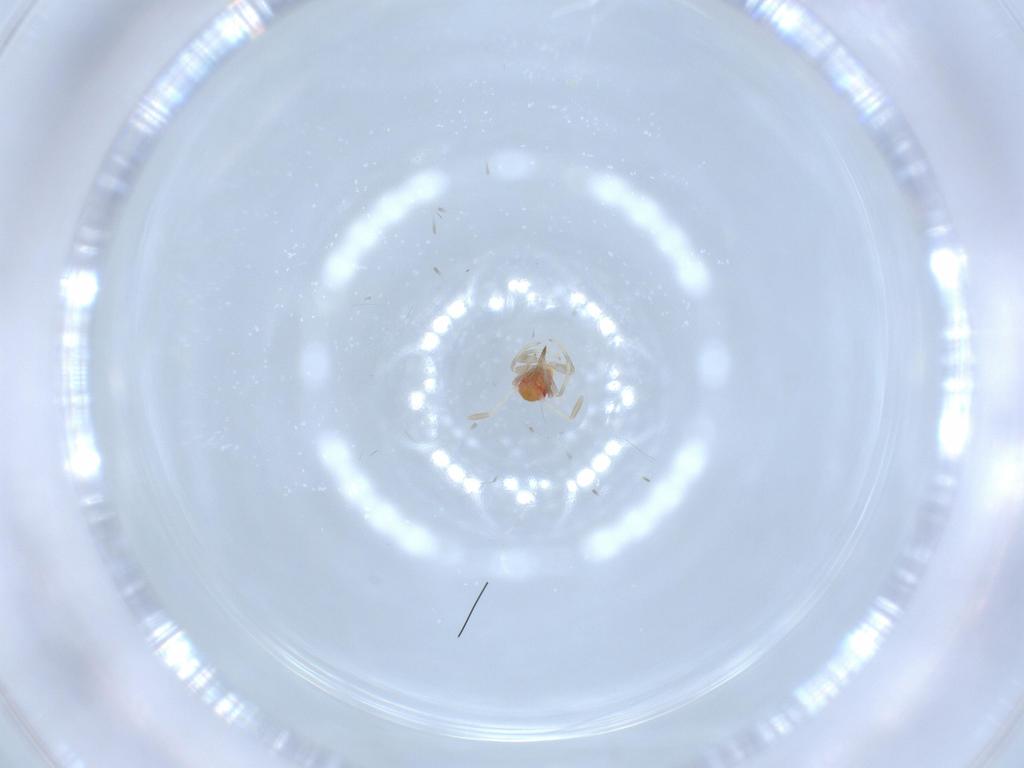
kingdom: Animalia
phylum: Arthropoda
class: Insecta
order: Hemiptera
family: Miridae
